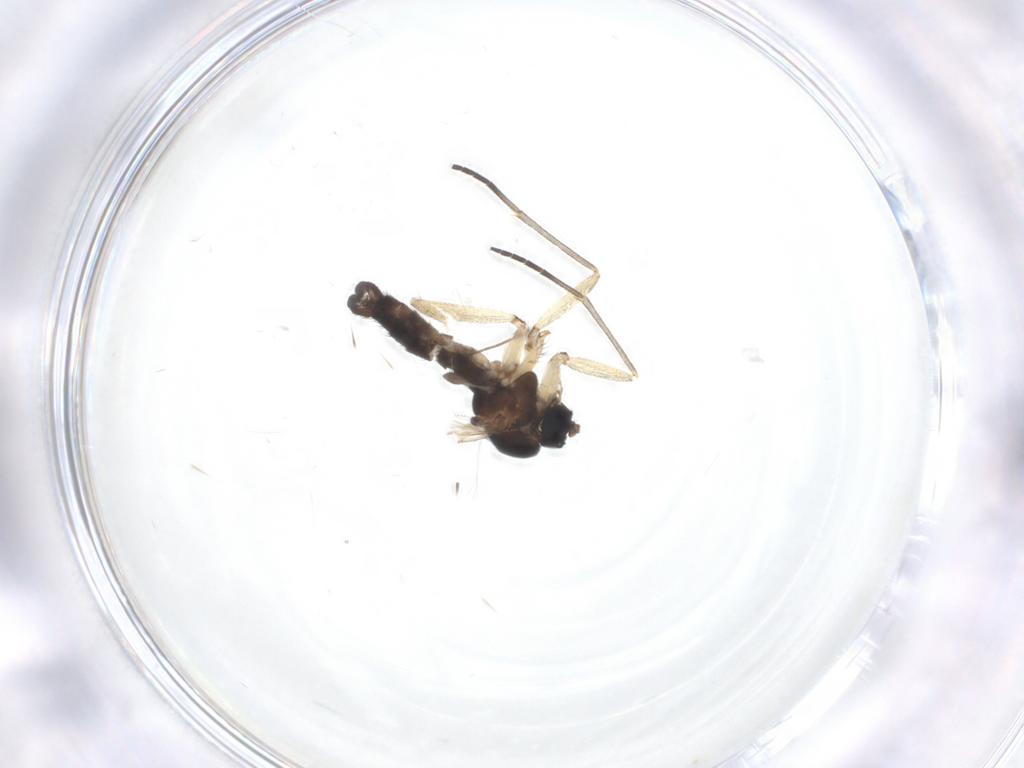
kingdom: Animalia
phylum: Arthropoda
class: Insecta
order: Diptera
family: Sciaridae
